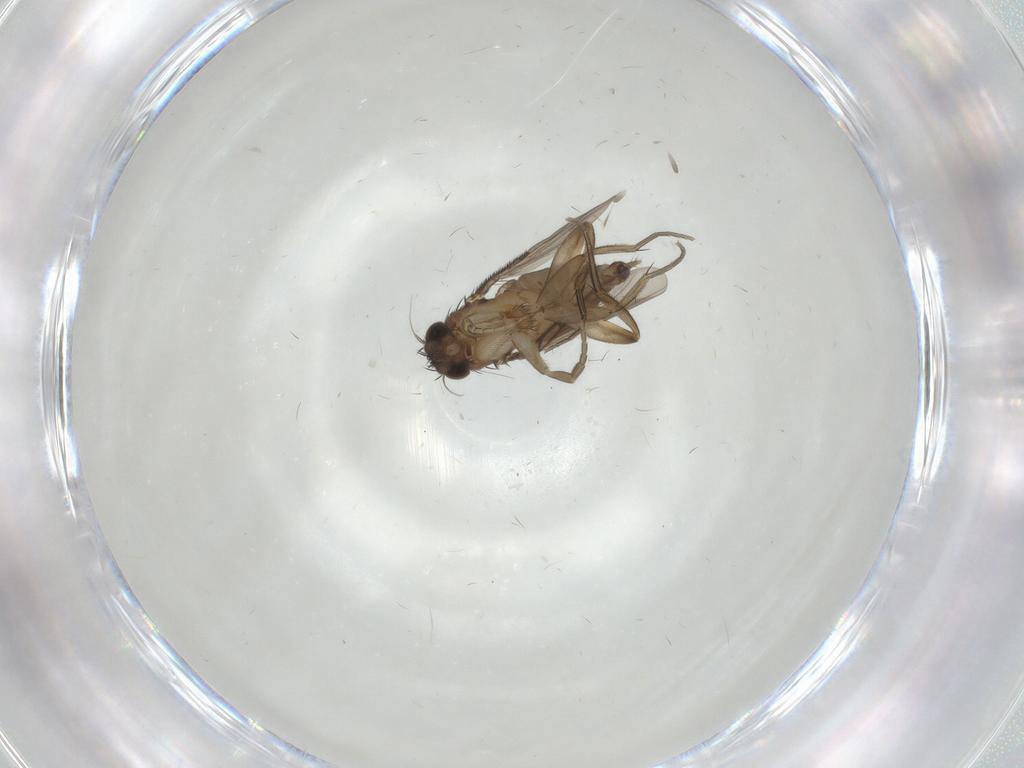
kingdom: Animalia
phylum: Arthropoda
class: Insecta
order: Diptera
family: Phoridae
